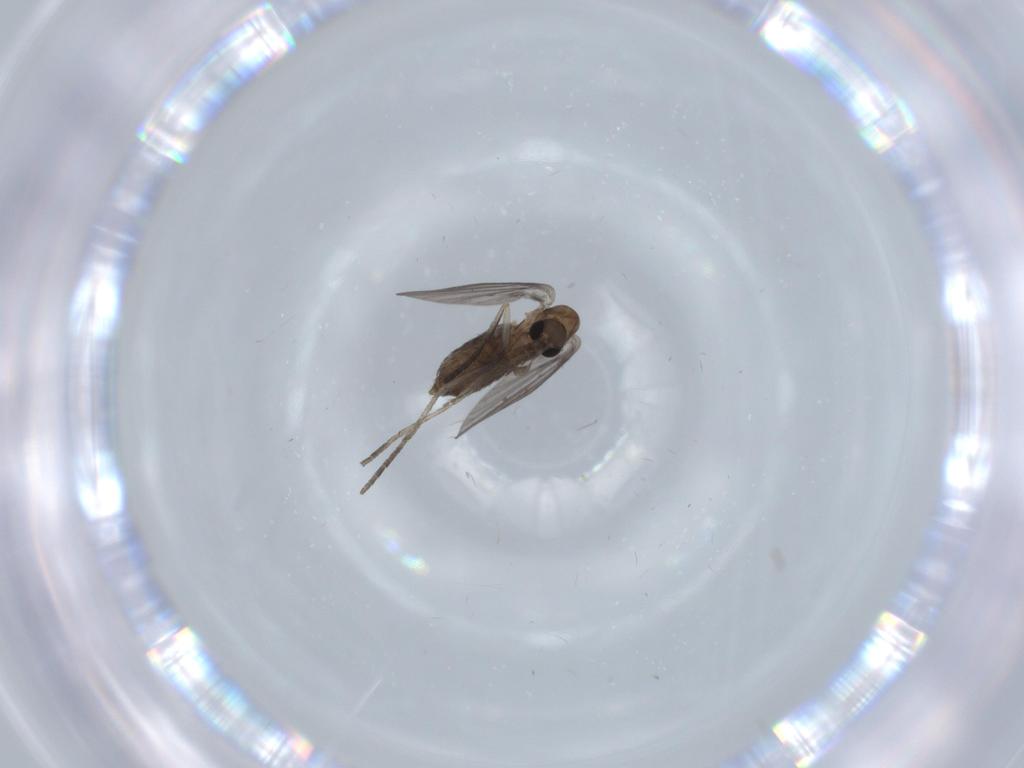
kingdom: Animalia
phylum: Arthropoda
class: Insecta
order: Diptera
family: Psychodidae
